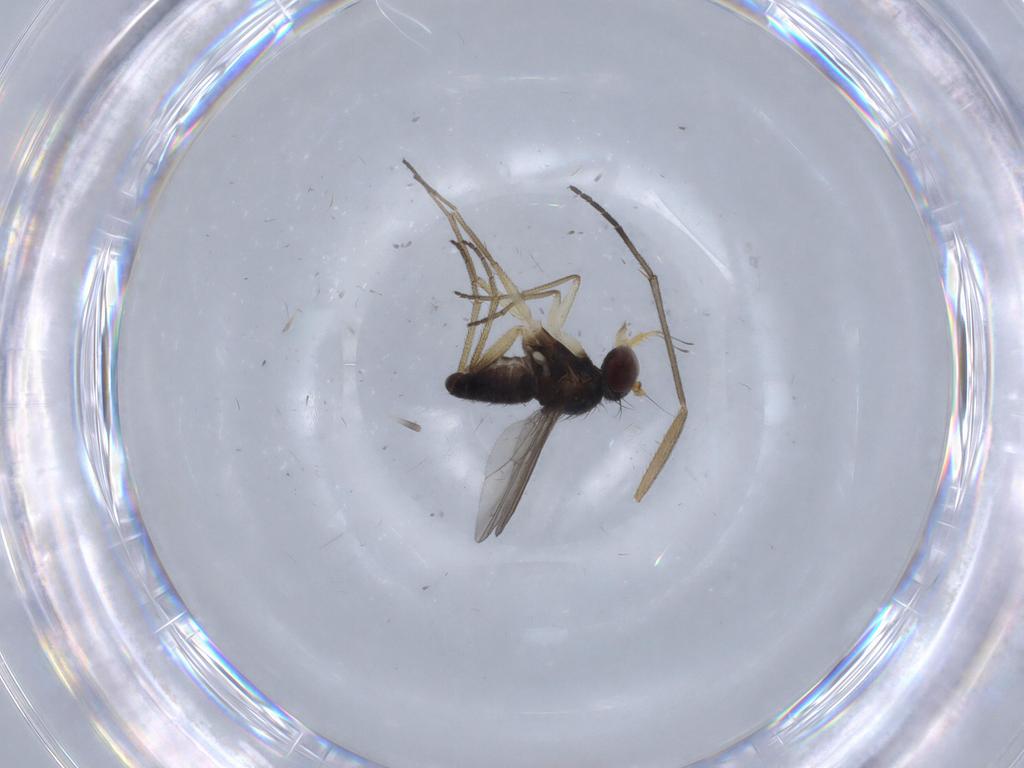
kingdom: Animalia
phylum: Arthropoda
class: Insecta
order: Diptera
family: Dolichopodidae
